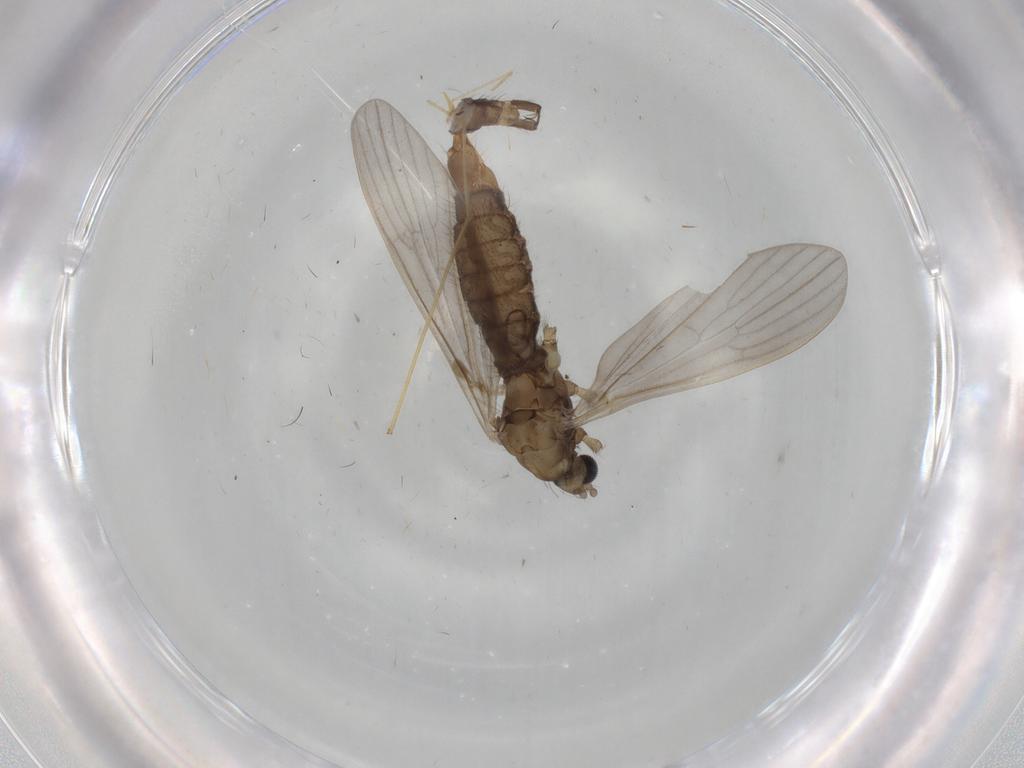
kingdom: Animalia
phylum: Arthropoda
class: Insecta
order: Diptera
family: Limoniidae
